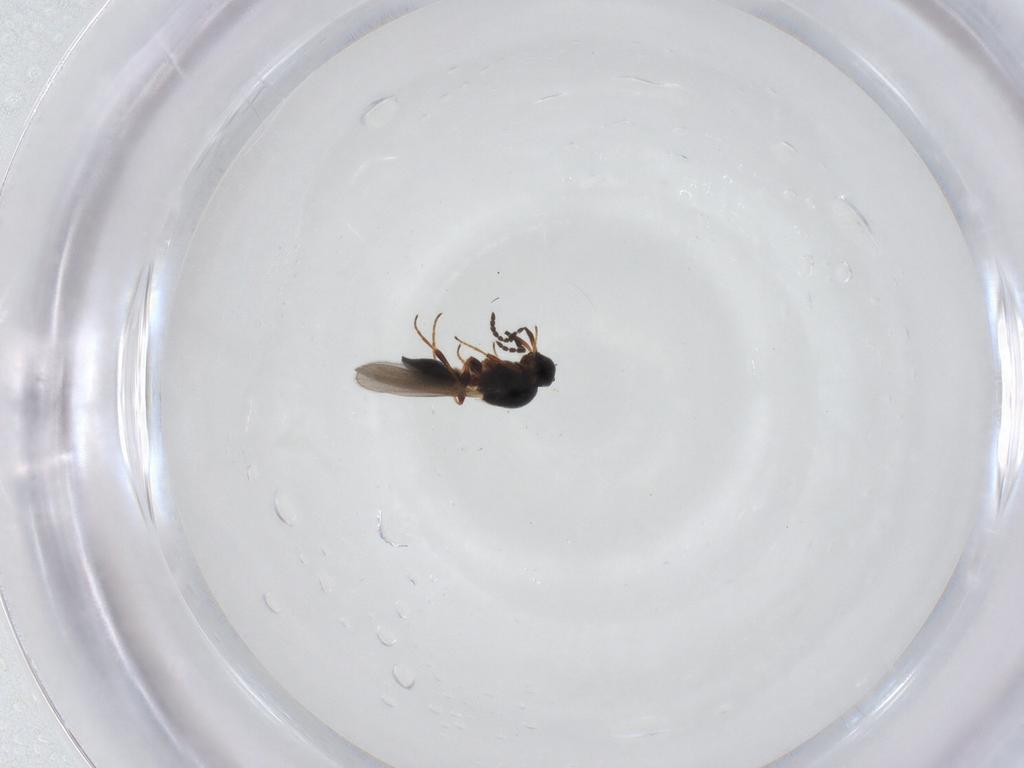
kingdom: Animalia
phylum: Arthropoda
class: Insecta
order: Hymenoptera
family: Platygastridae
